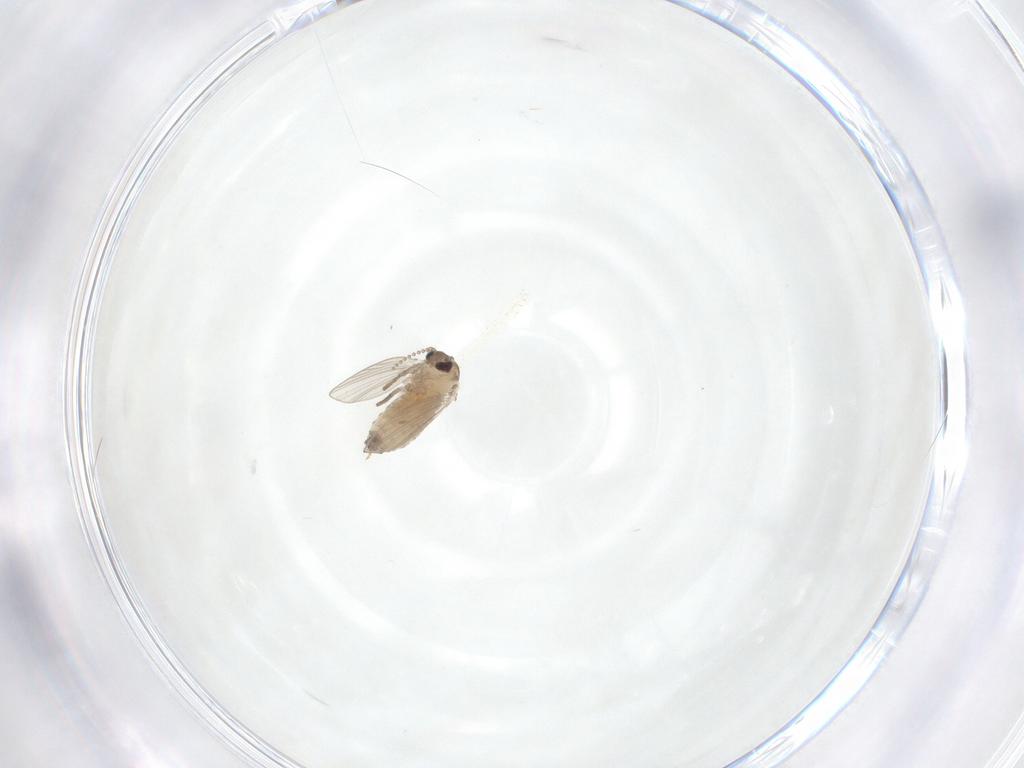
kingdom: Animalia
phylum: Arthropoda
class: Insecta
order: Diptera
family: Psychodidae
